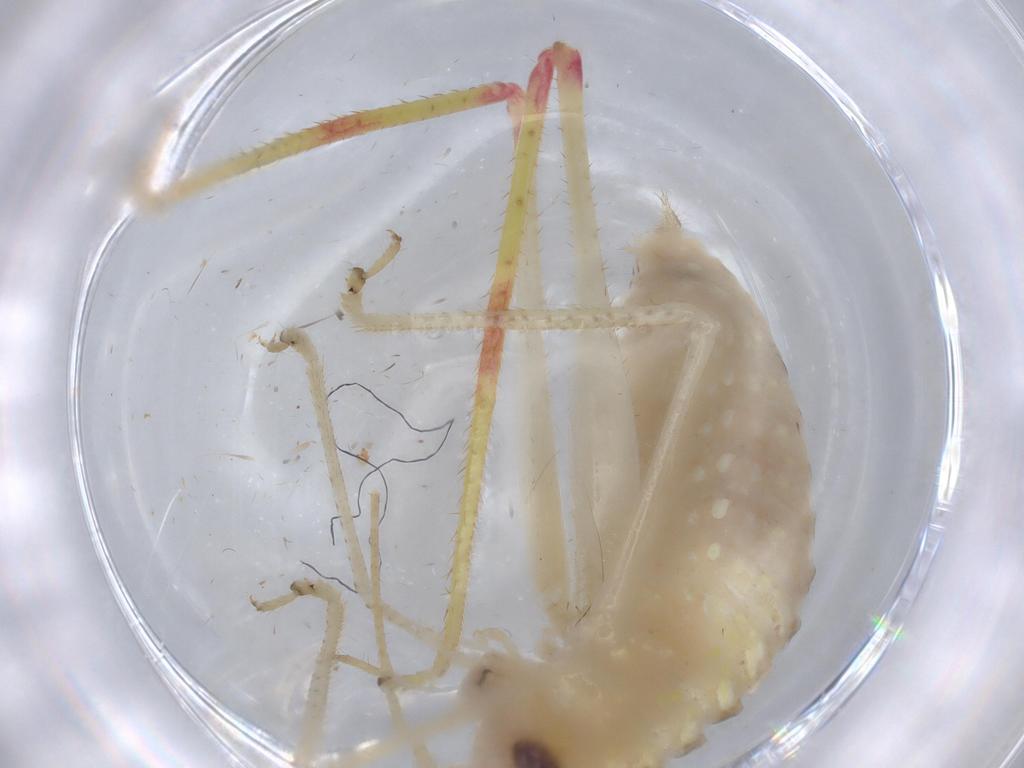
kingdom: Animalia
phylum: Arthropoda
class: Insecta
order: Orthoptera
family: Tettigoniidae
